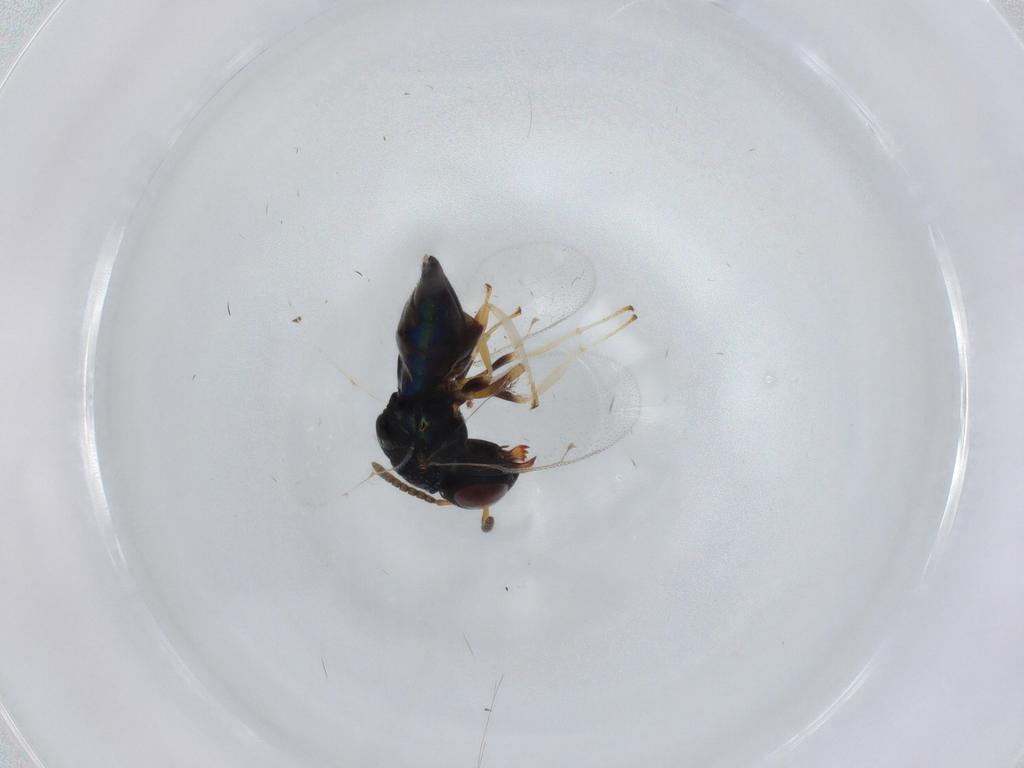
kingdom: Animalia
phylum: Arthropoda
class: Insecta
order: Hymenoptera
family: Pteromalidae
